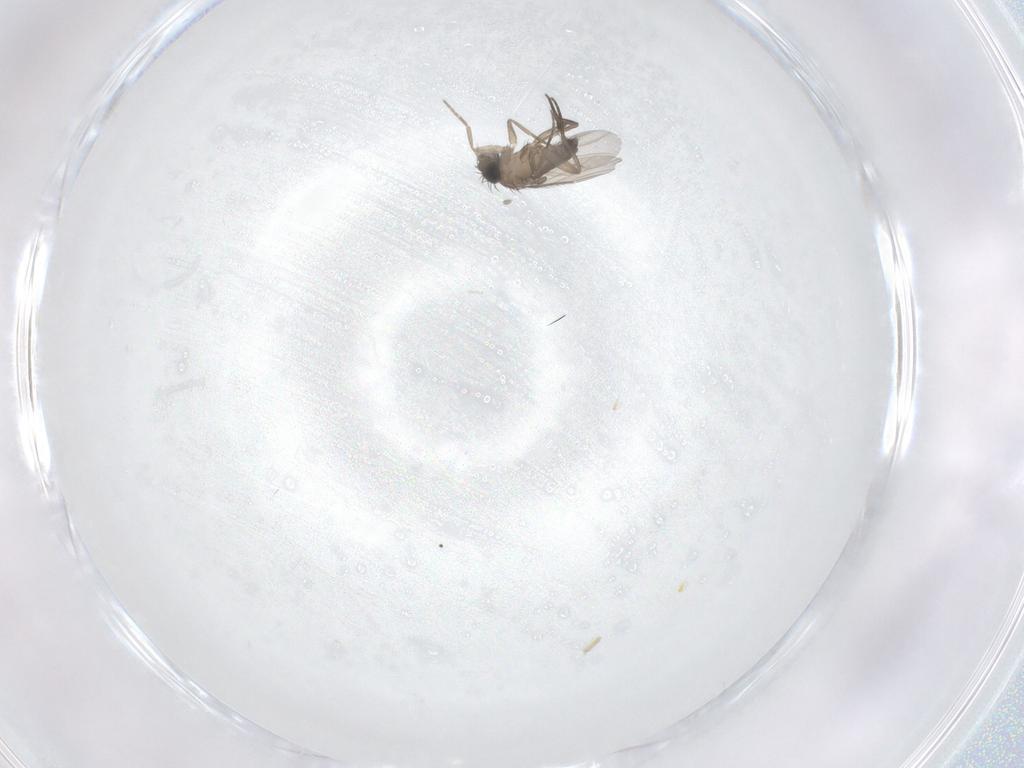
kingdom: Animalia
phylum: Arthropoda
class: Insecta
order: Diptera
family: Phoridae
